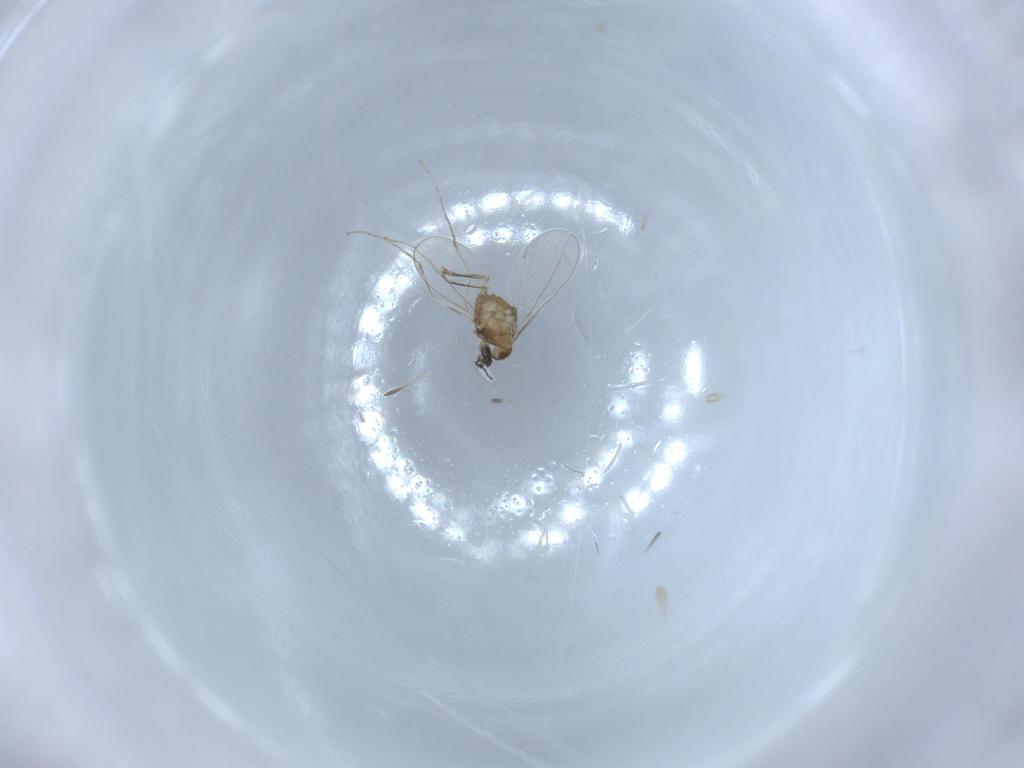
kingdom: Animalia
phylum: Arthropoda
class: Insecta
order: Diptera
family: Cecidomyiidae
